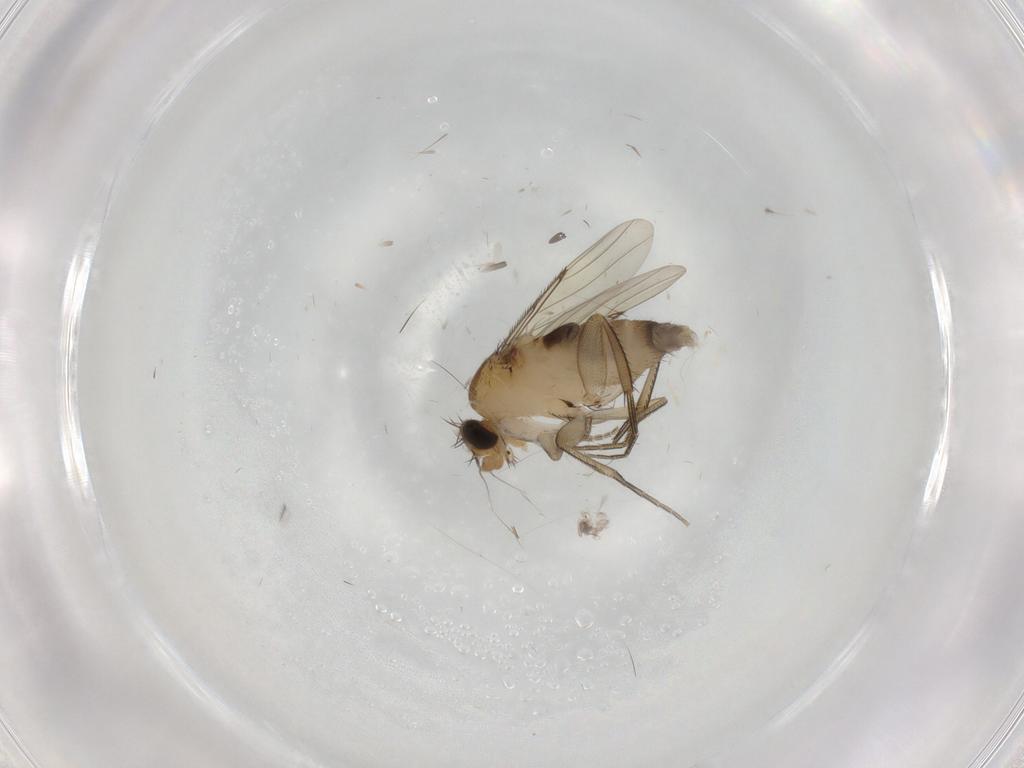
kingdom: Animalia
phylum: Arthropoda
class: Insecta
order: Diptera
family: Phoridae
